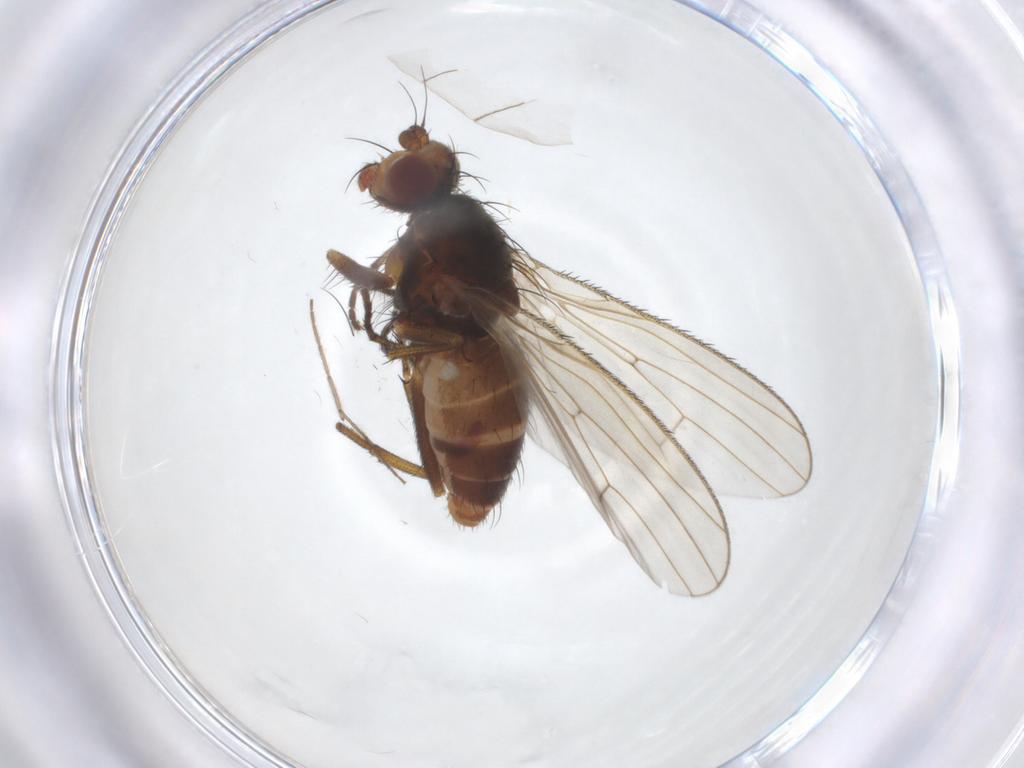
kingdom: Animalia
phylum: Arthropoda
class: Insecta
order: Diptera
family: Heleomyzidae
